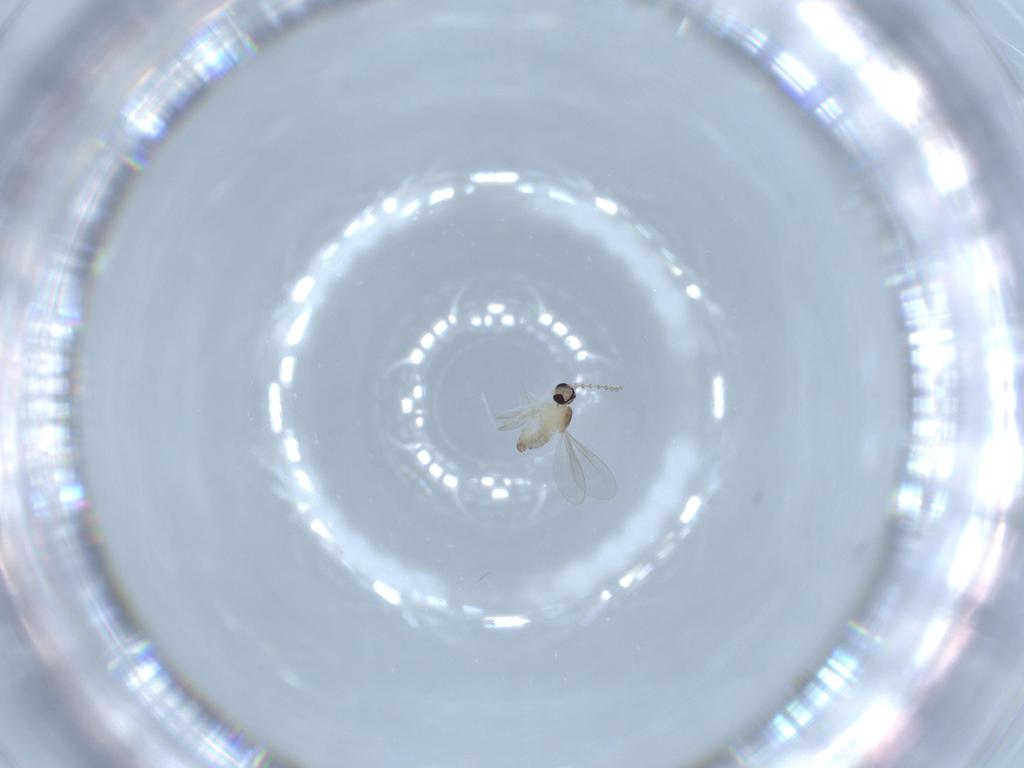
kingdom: Animalia
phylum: Arthropoda
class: Insecta
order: Diptera
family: Cecidomyiidae
